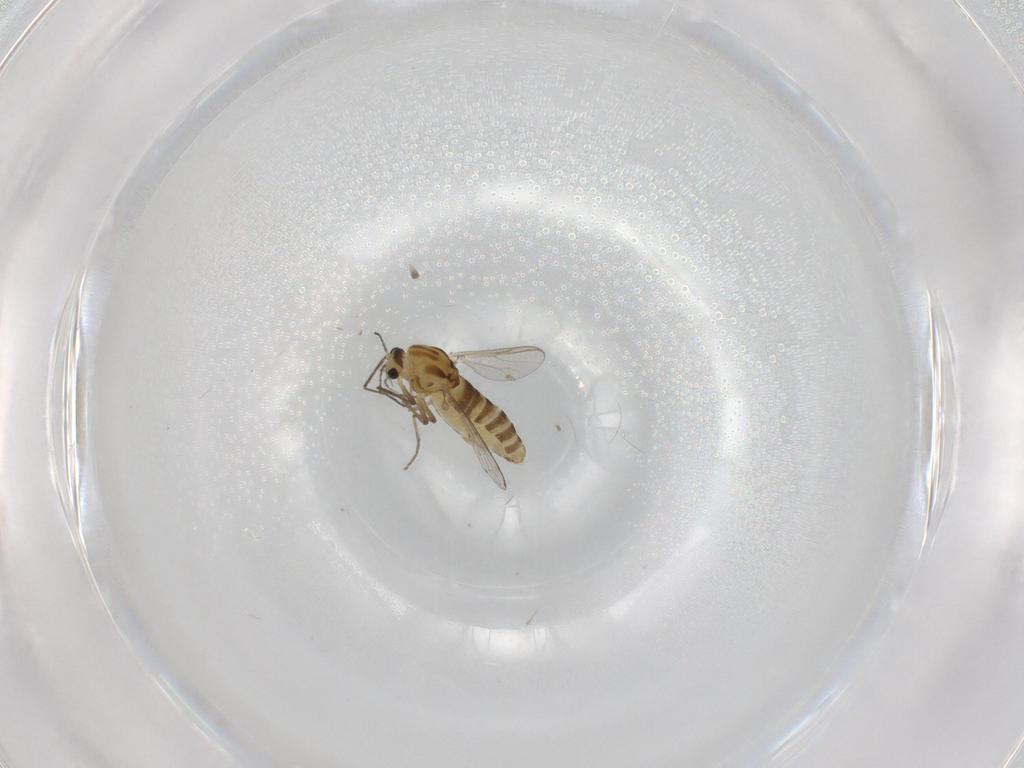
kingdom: Animalia
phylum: Arthropoda
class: Insecta
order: Diptera
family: Chironomidae
